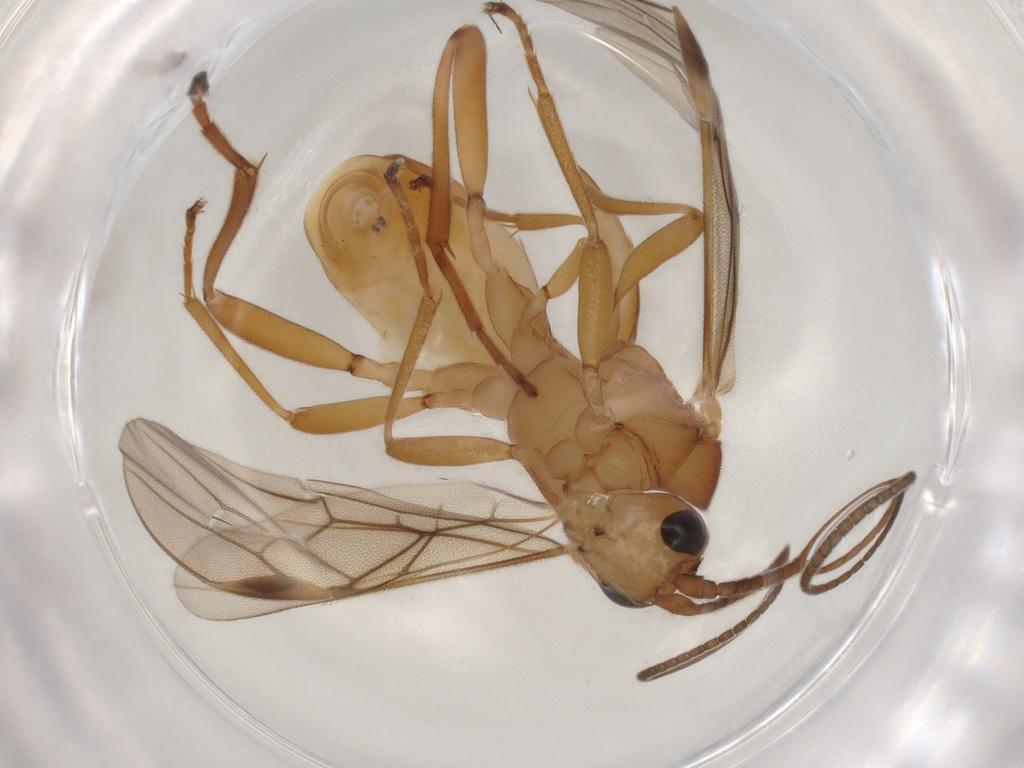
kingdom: Animalia
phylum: Arthropoda
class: Insecta
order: Hymenoptera
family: Braconidae
